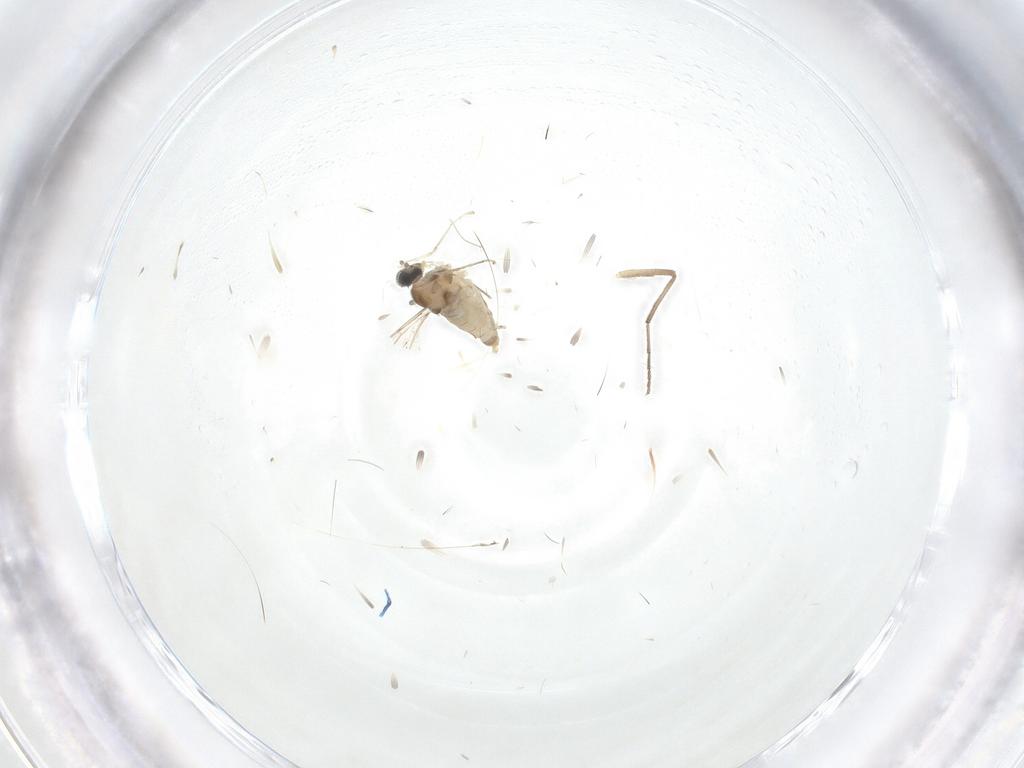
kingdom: Animalia
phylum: Arthropoda
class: Insecta
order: Diptera
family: Cecidomyiidae
